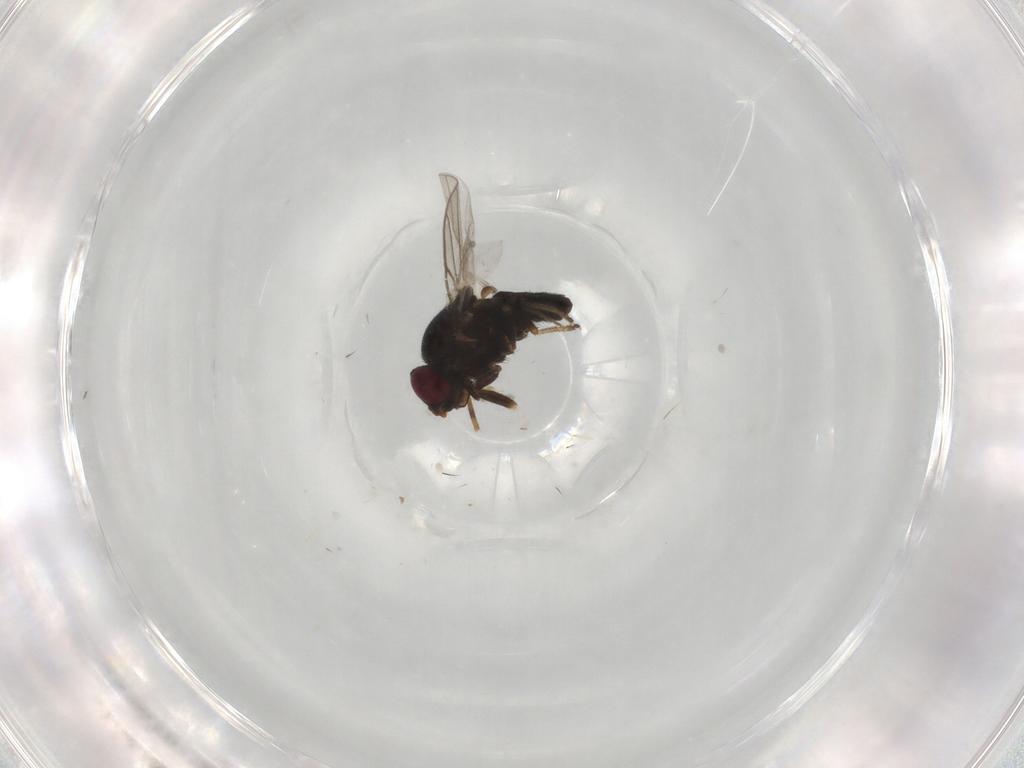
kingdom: Animalia
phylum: Arthropoda
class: Insecta
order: Diptera
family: Chloropidae
